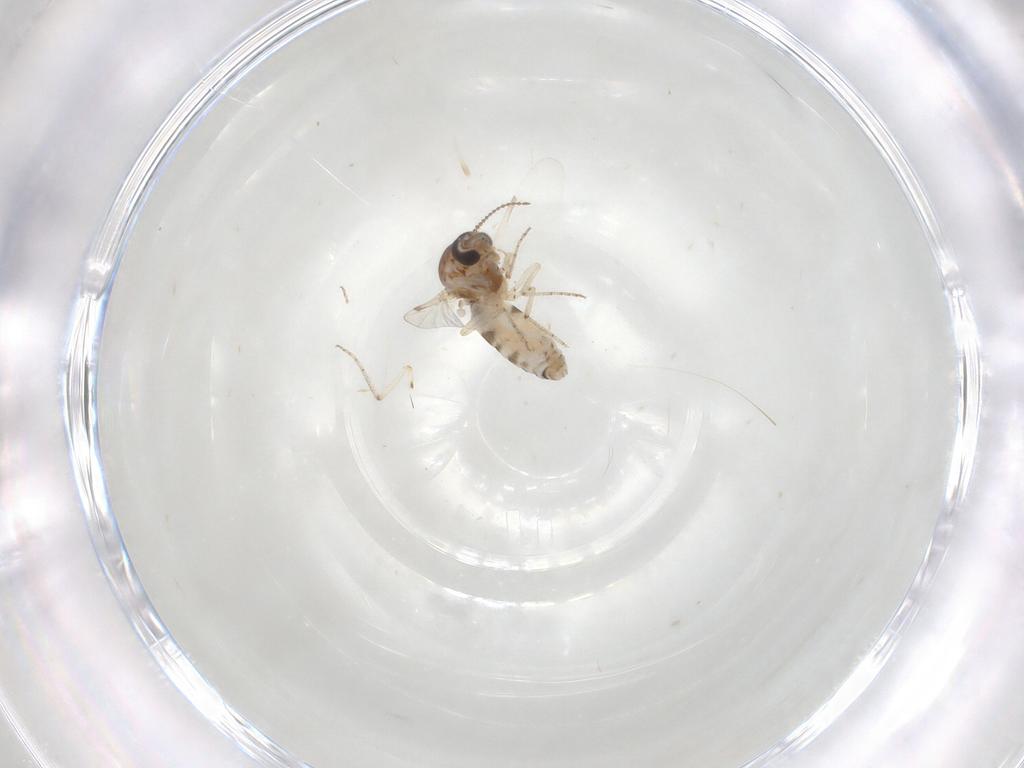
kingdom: Animalia
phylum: Arthropoda
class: Insecta
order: Diptera
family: Ceratopogonidae
